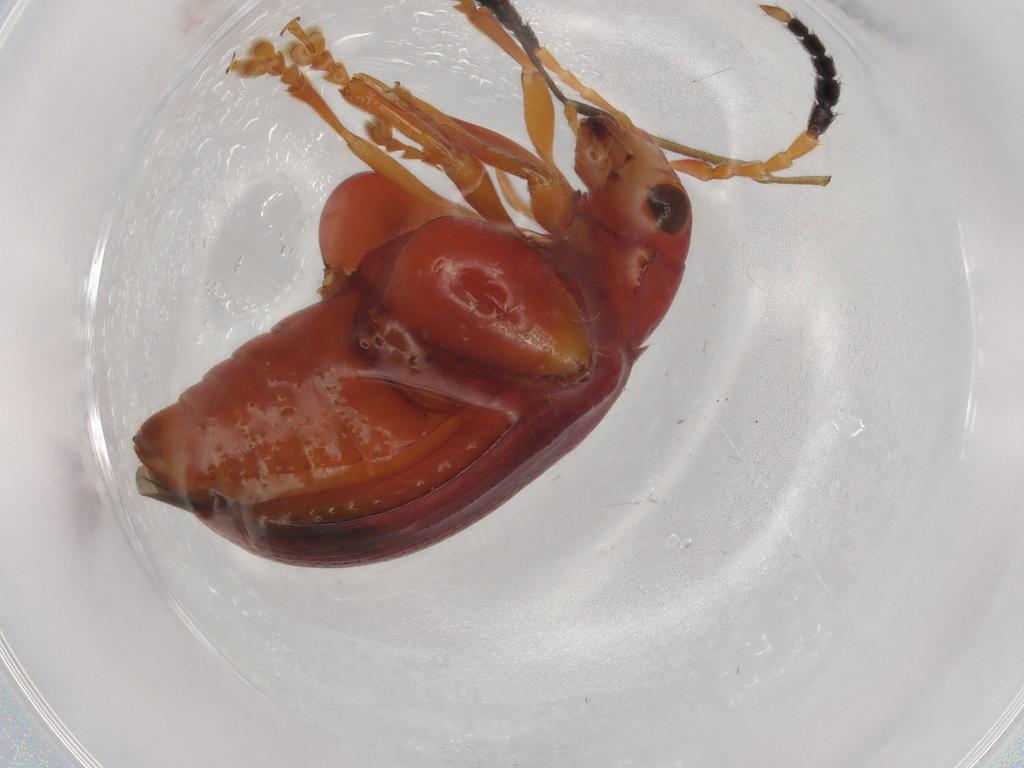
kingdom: Animalia
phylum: Arthropoda
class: Insecta
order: Coleoptera
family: Chrysomelidae
